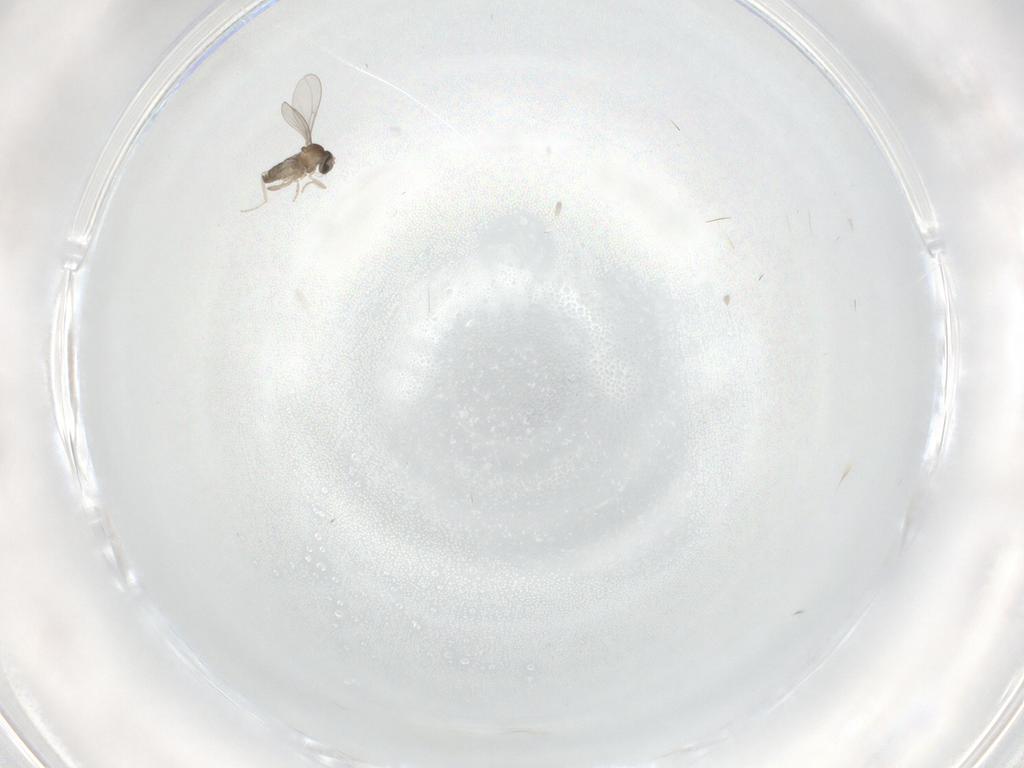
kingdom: Animalia
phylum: Arthropoda
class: Insecta
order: Diptera
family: Cecidomyiidae
